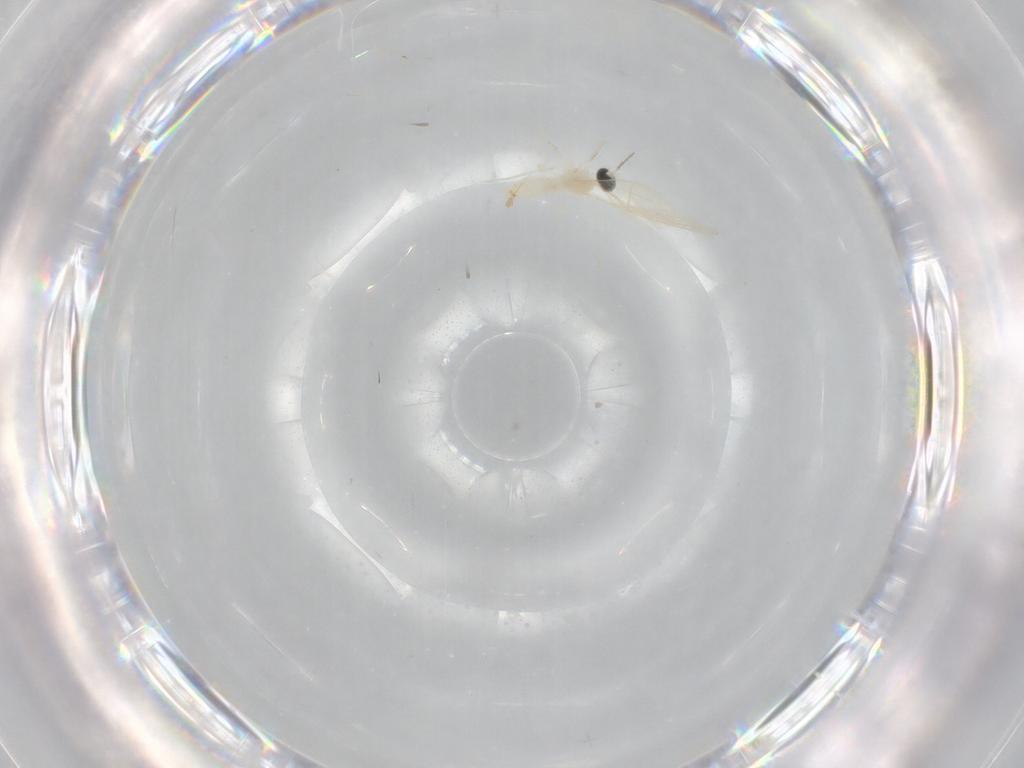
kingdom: Animalia
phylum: Arthropoda
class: Insecta
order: Diptera
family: Cecidomyiidae
